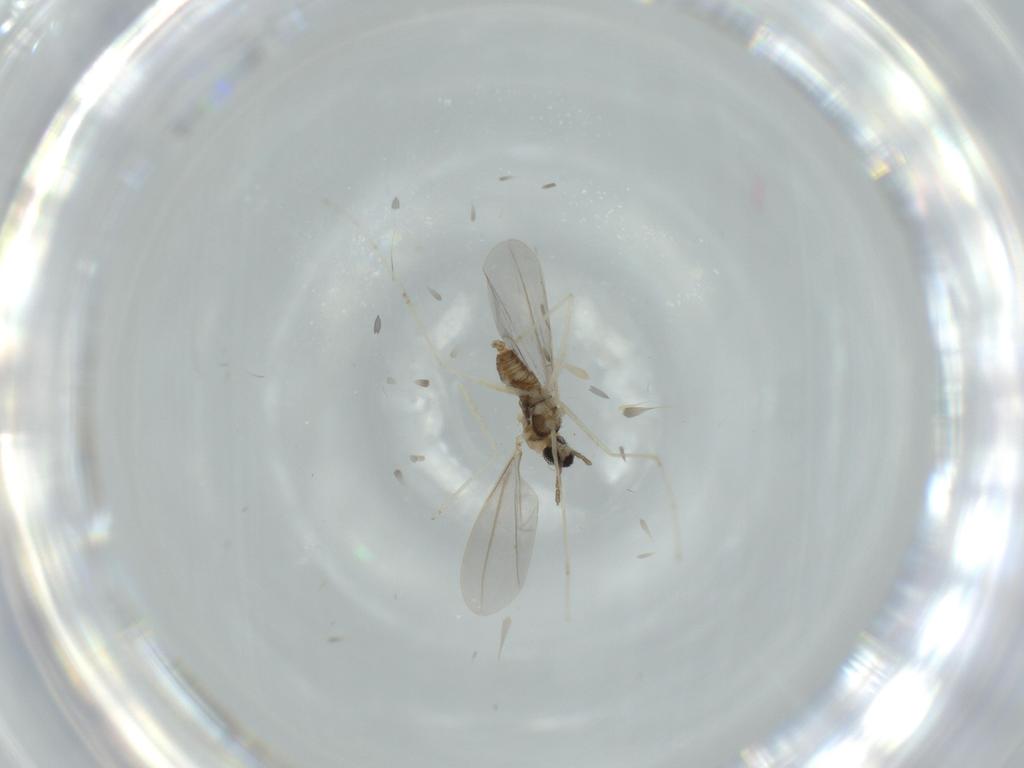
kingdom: Animalia
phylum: Arthropoda
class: Insecta
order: Diptera
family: Cecidomyiidae
